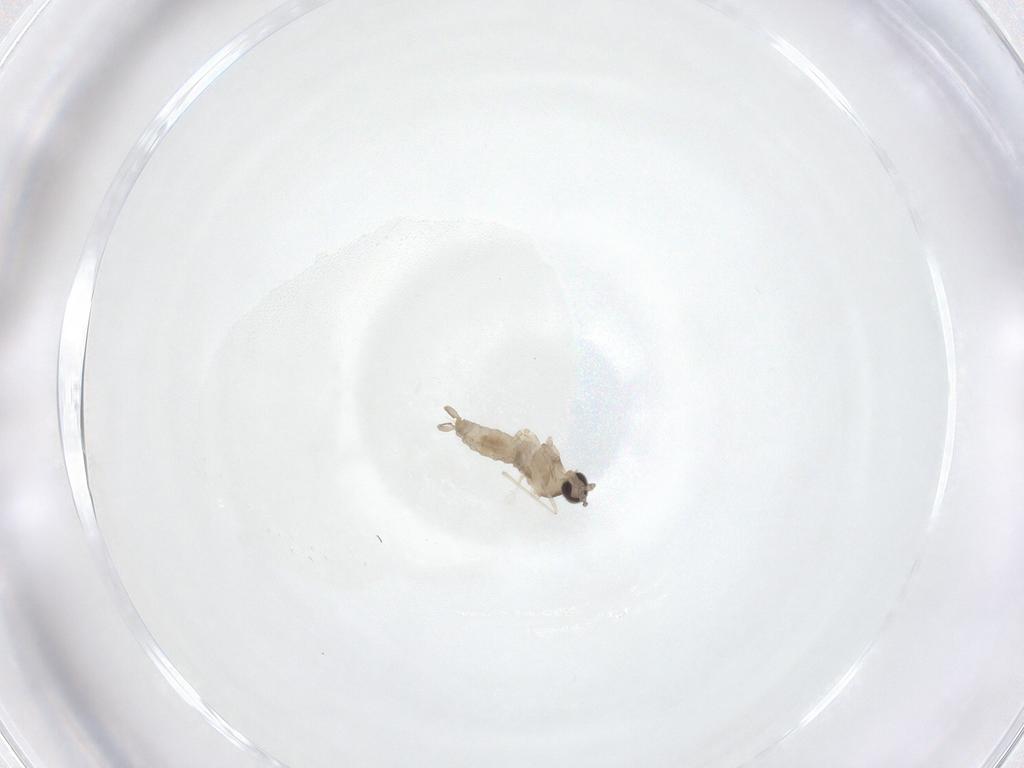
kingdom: Animalia
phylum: Arthropoda
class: Insecta
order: Diptera
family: Cecidomyiidae
